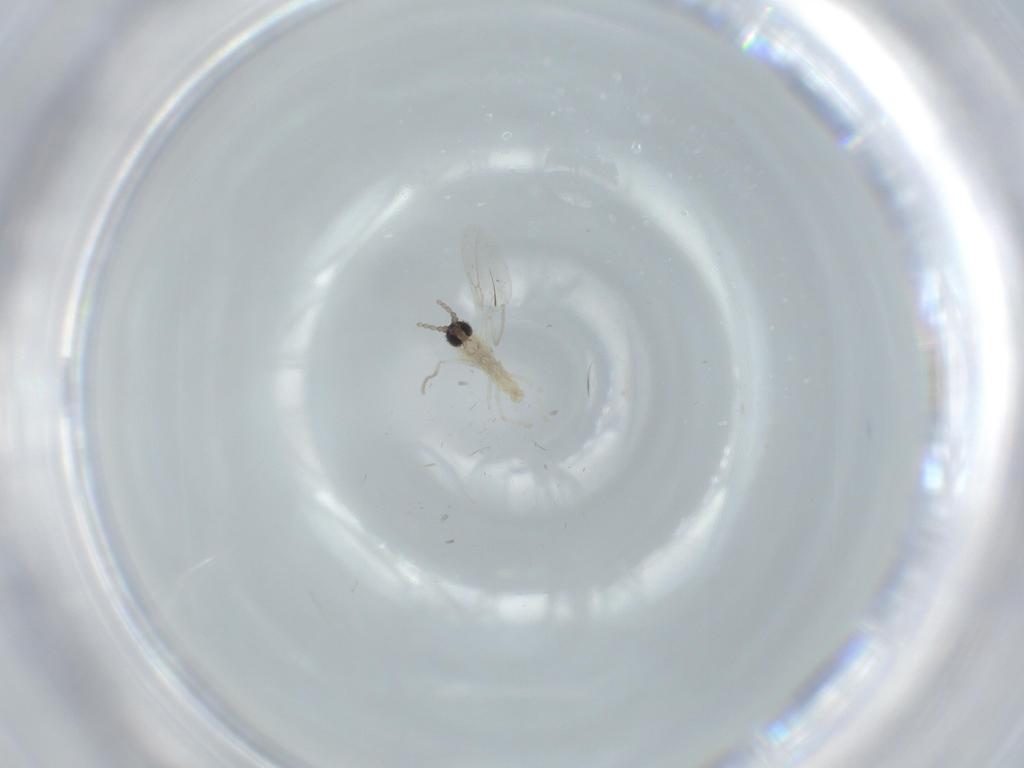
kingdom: Animalia
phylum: Arthropoda
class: Insecta
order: Diptera
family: Cecidomyiidae
